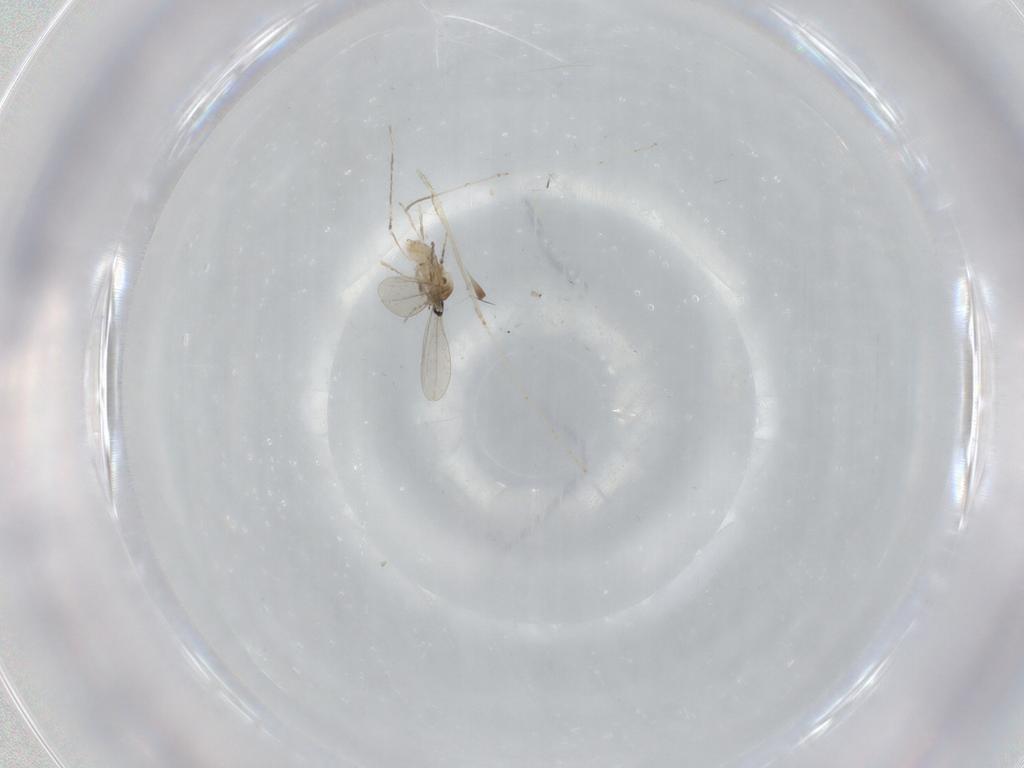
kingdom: Animalia
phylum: Arthropoda
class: Insecta
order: Diptera
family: Cecidomyiidae
